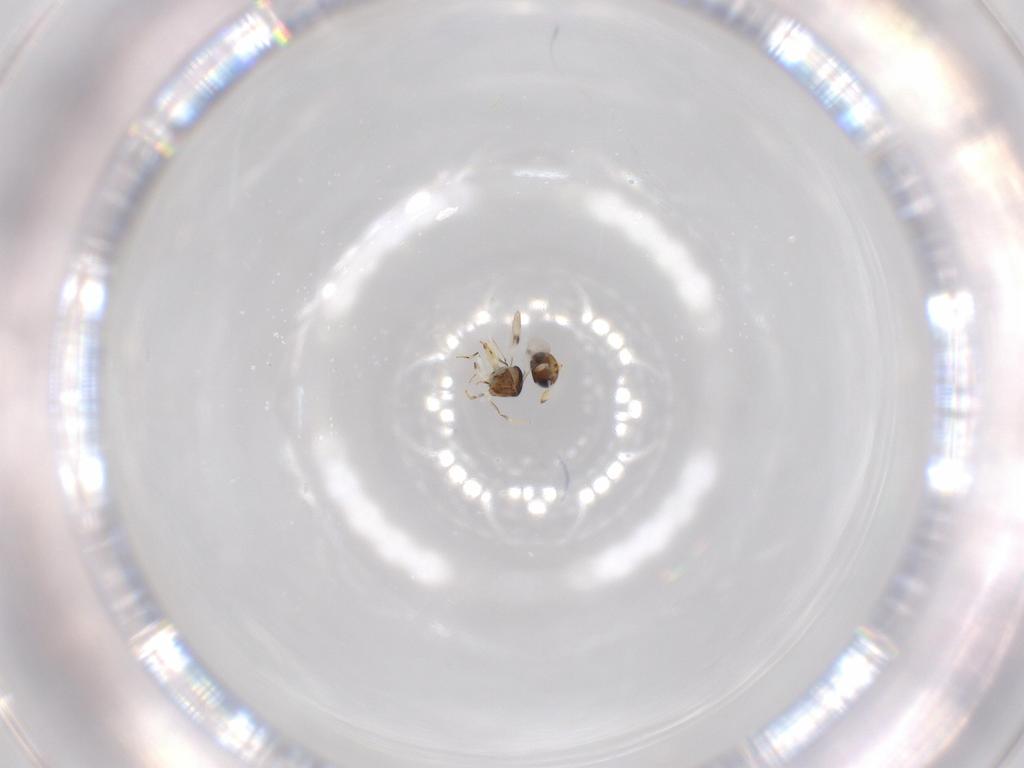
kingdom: Animalia
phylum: Arthropoda
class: Insecta
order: Hymenoptera
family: Scelionidae
